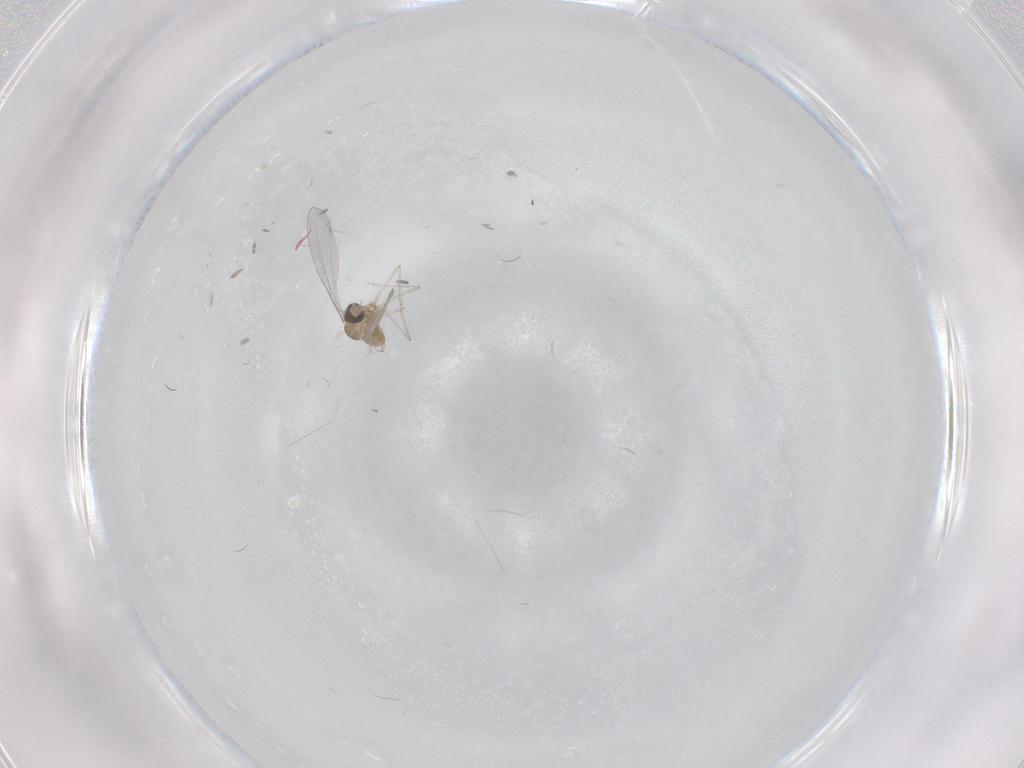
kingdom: Animalia
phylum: Arthropoda
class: Insecta
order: Diptera
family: Cecidomyiidae
